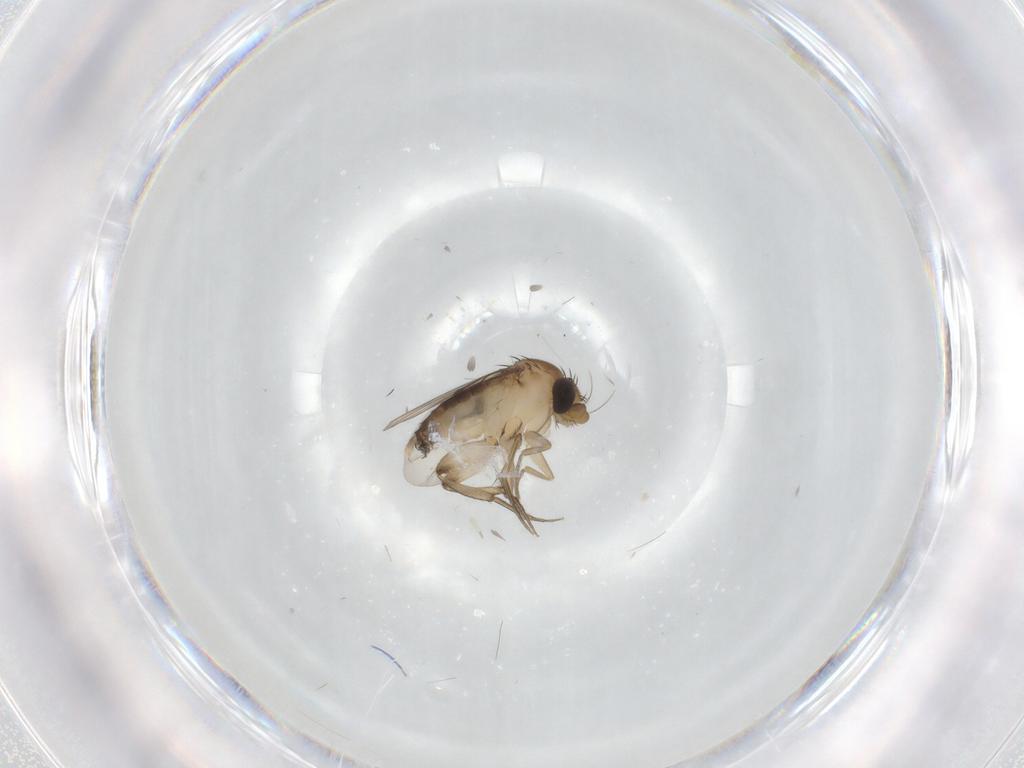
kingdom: Animalia
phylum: Arthropoda
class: Insecta
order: Diptera
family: Phoridae
